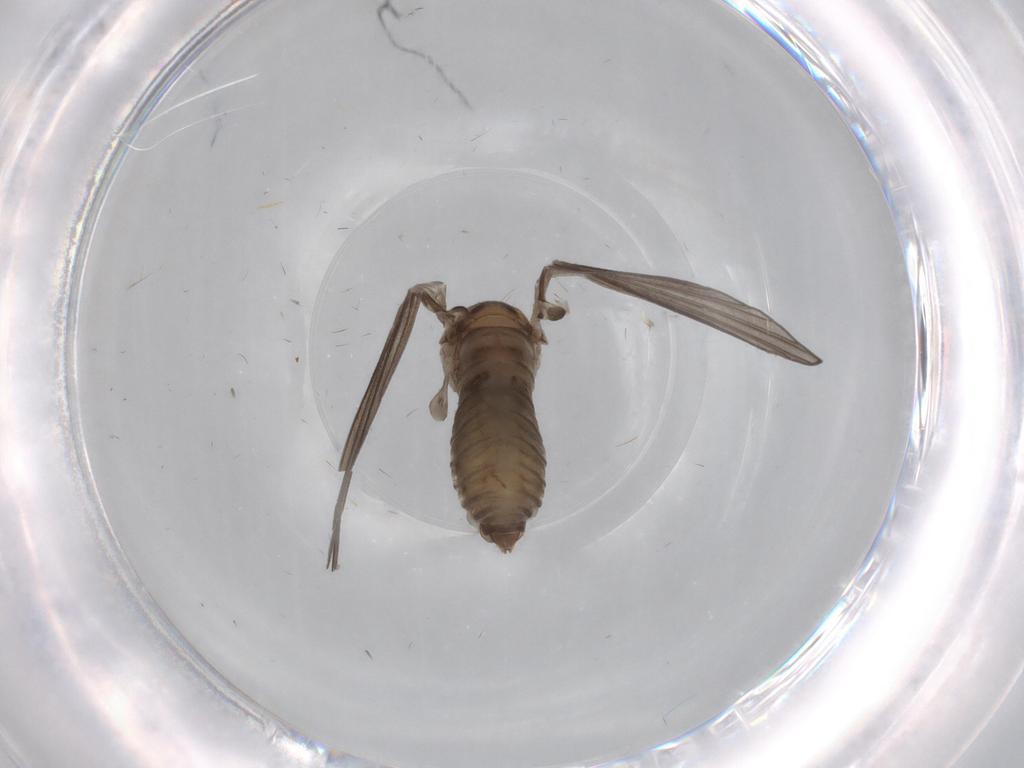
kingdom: Animalia
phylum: Arthropoda
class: Insecta
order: Diptera
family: Psychodidae
